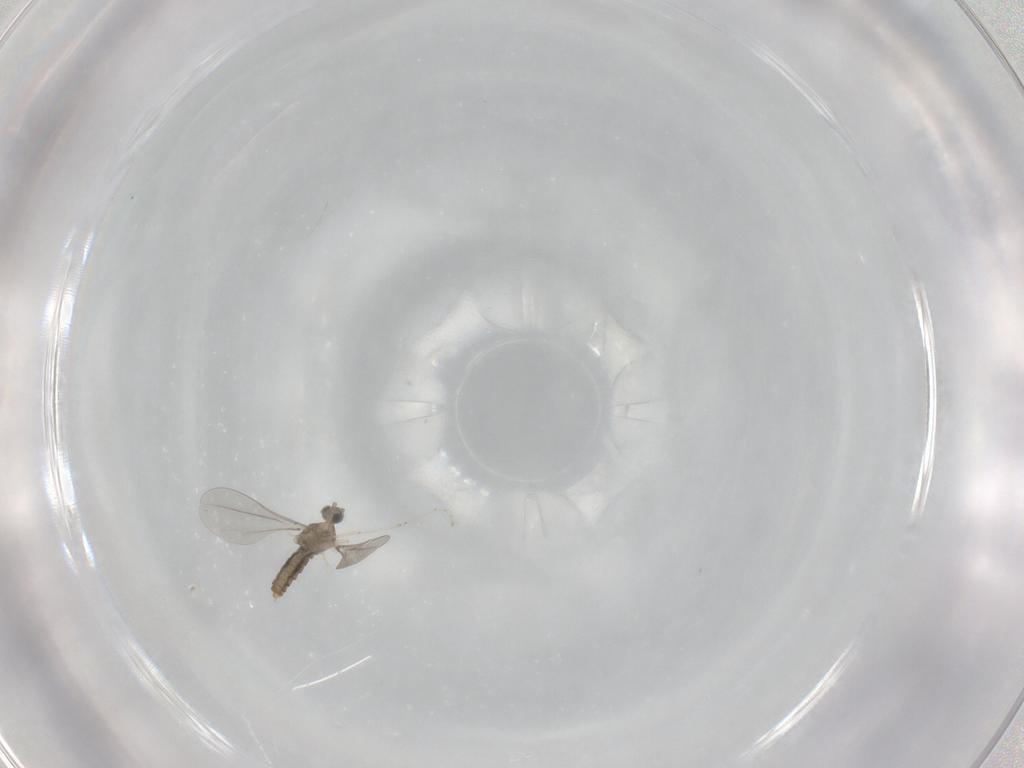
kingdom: Animalia
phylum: Arthropoda
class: Insecta
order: Diptera
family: Cecidomyiidae
